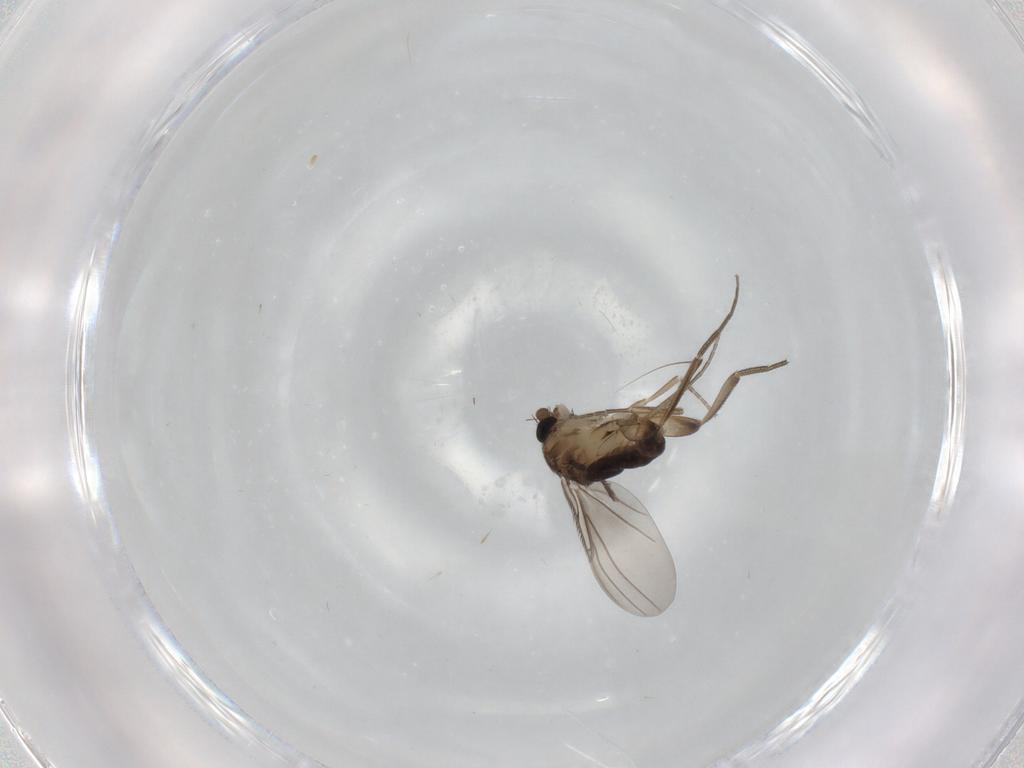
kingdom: Animalia
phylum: Arthropoda
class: Insecta
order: Diptera
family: Phoridae
